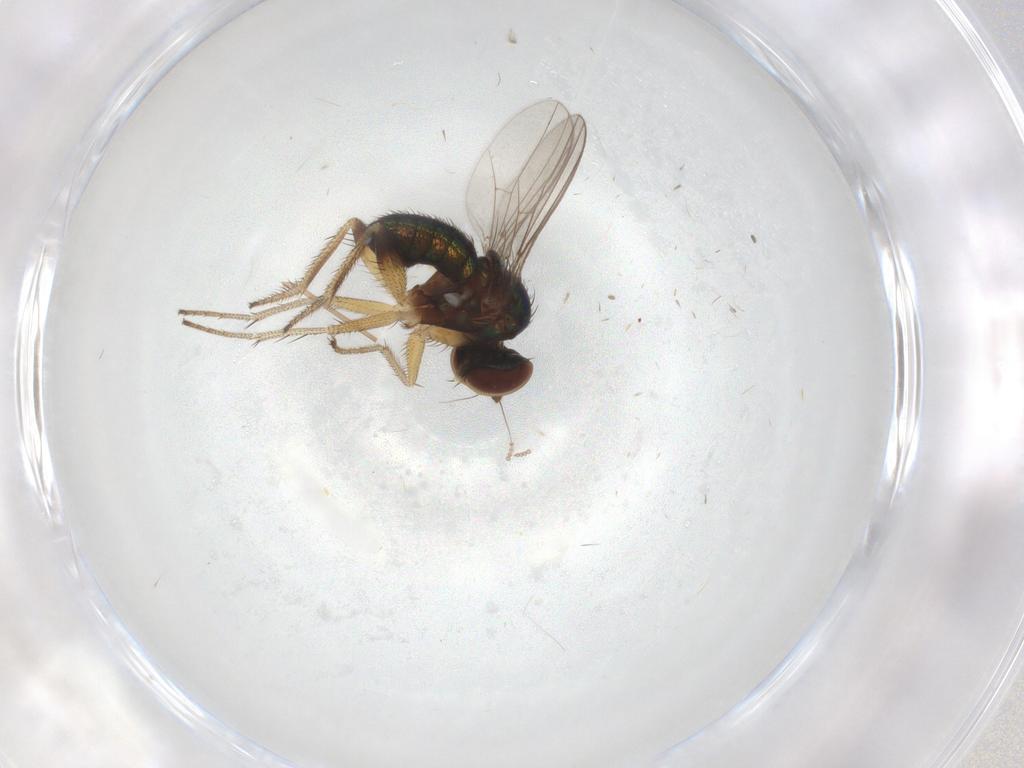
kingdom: Animalia
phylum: Arthropoda
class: Insecta
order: Diptera
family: Dolichopodidae
